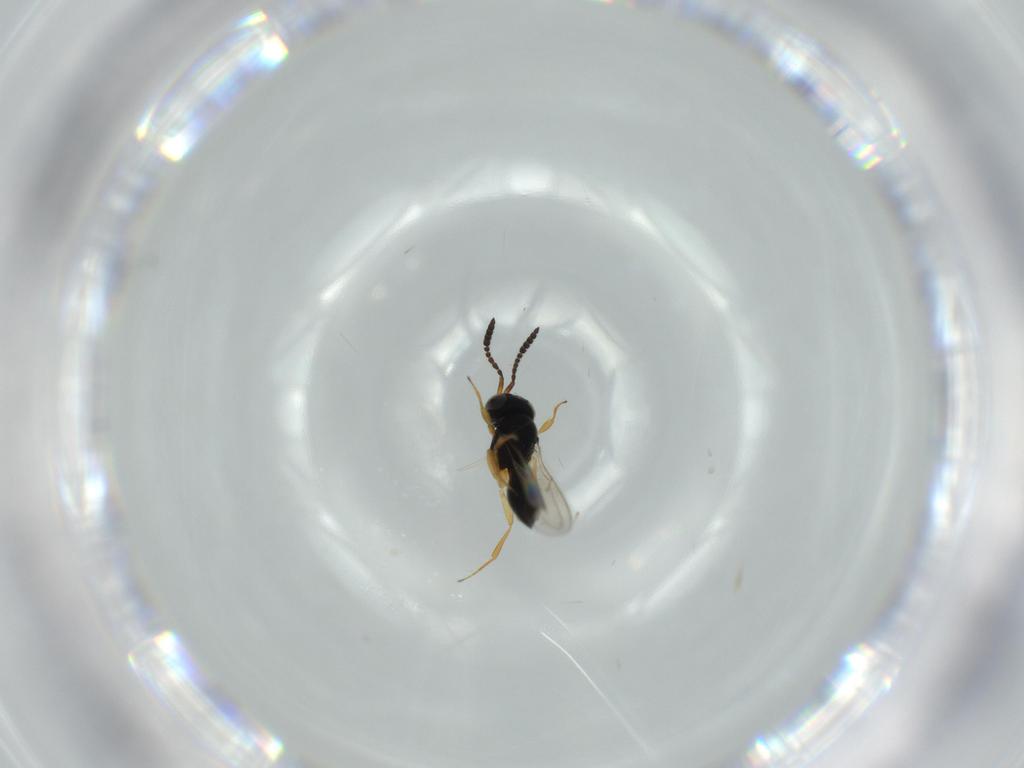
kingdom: Animalia
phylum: Arthropoda
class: Insecta
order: Hymenoptera
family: Scelionidae
